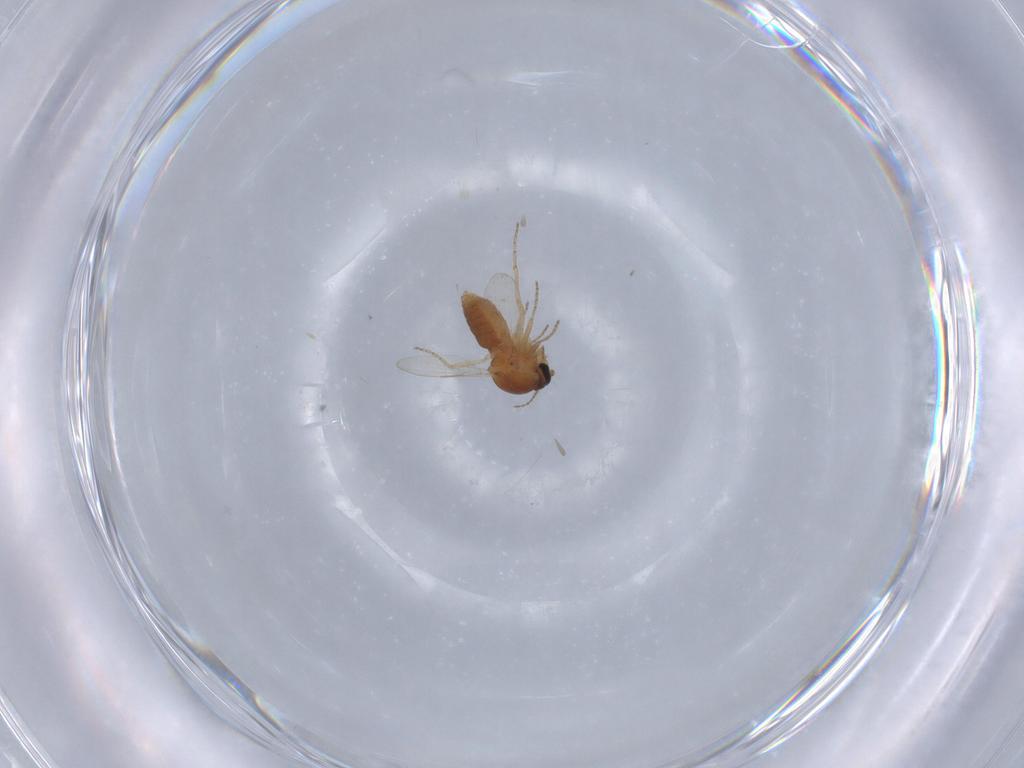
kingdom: Animalia
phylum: Arthropoda
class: Insecta
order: Diptera
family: Ceratopogonidae
